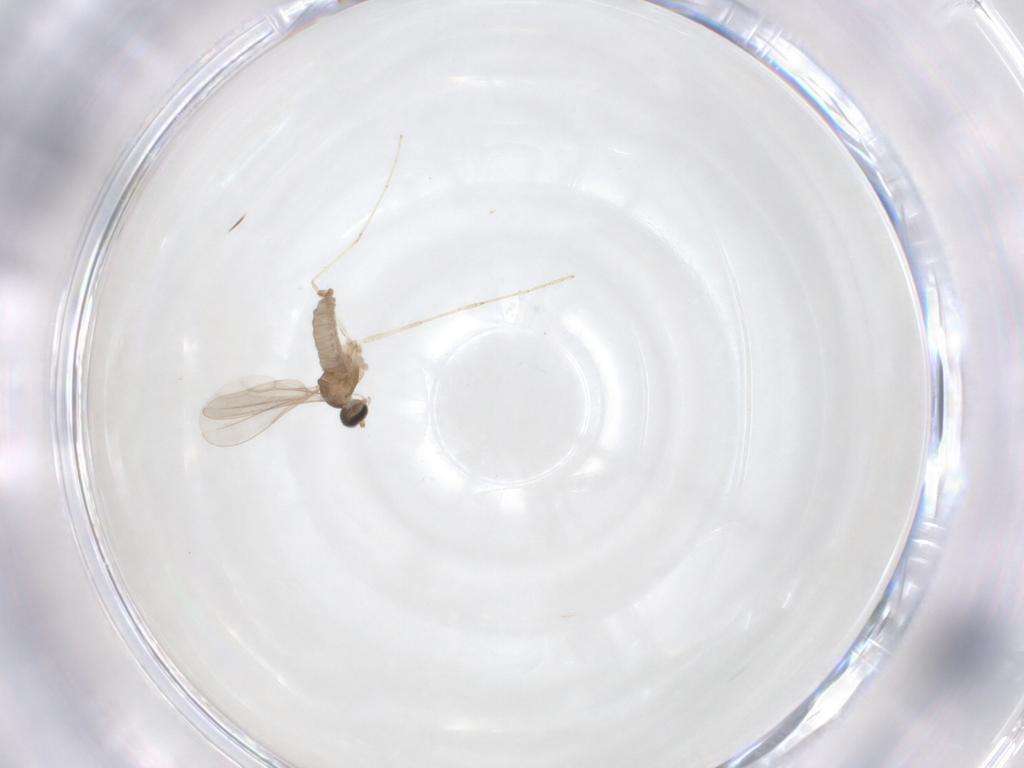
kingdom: Animalia
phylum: Arthropoda
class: Insecta
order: Diptera
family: Cecidomyiidae
